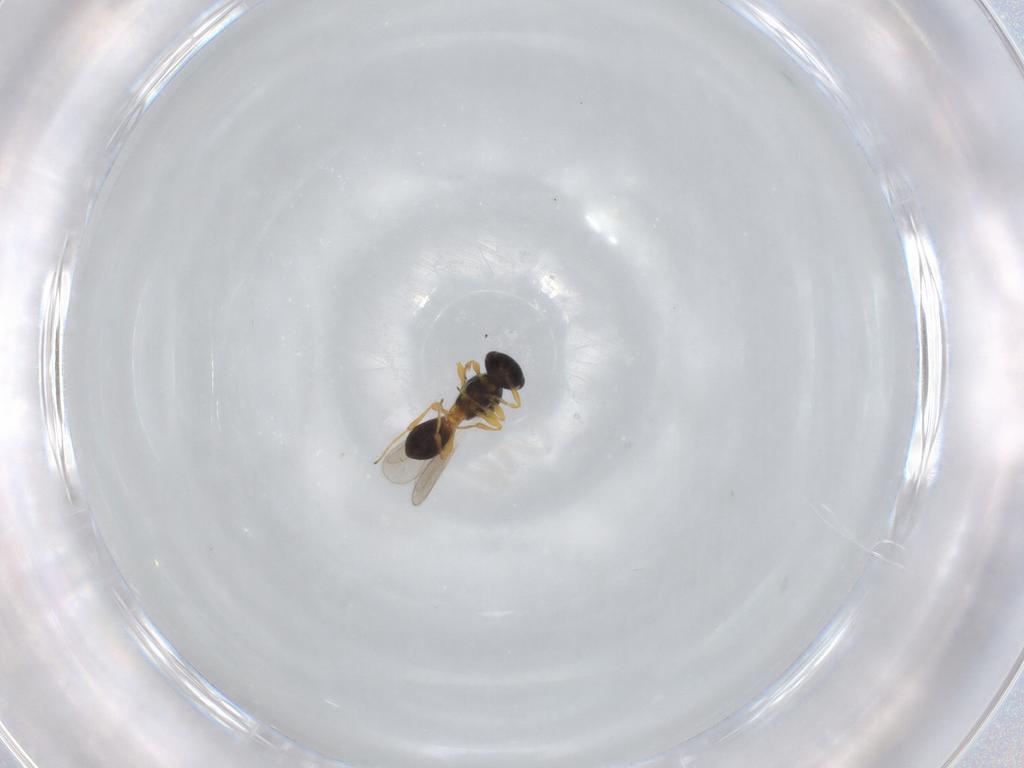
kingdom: Animalia
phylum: Arthropoda
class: Insecta
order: Hymenoptera
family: Platygastridae
